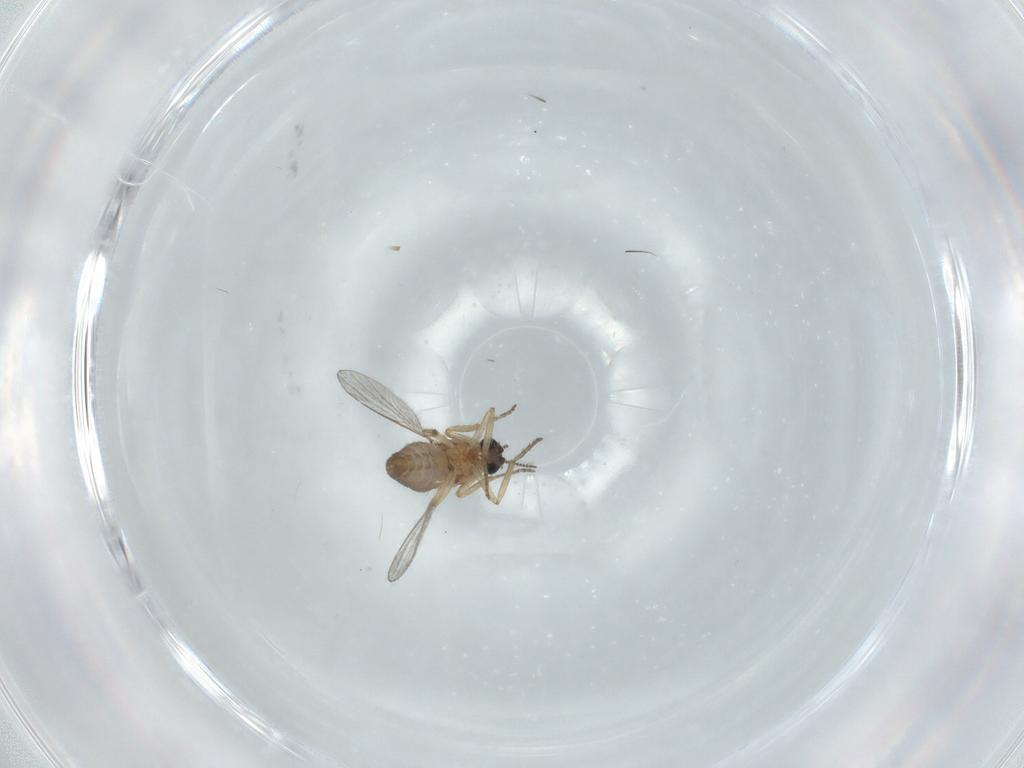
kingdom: Animalia
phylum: Arthropoda
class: Insecta
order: Diptera
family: Ceratopogonidae
